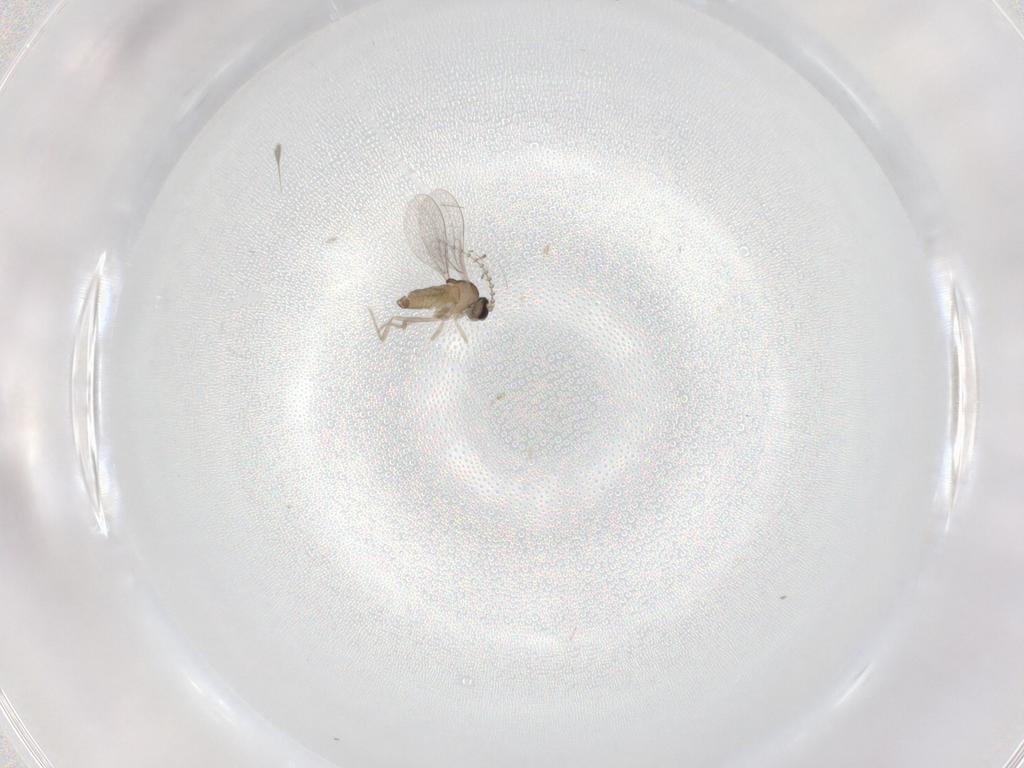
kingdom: Animalia
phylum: Arthropoda
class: Insecta
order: Diptera
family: Cecidomyiidae
